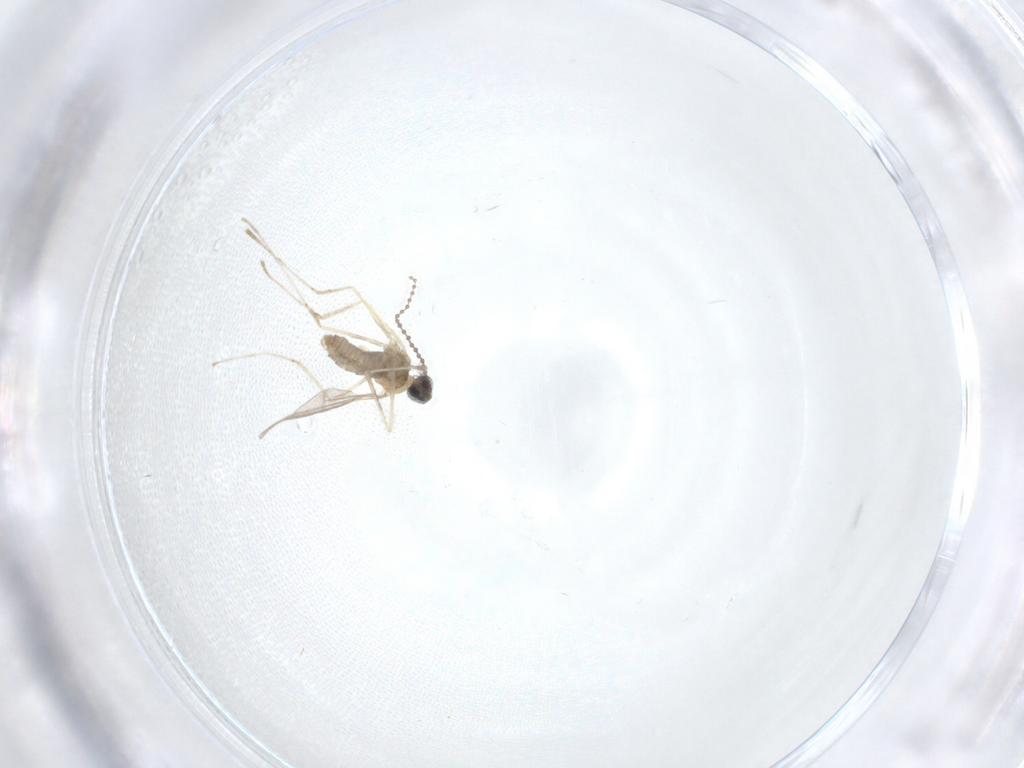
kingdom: Animalia
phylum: Arthropoda
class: Insecta
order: Diptera
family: Cecidomyiidae
